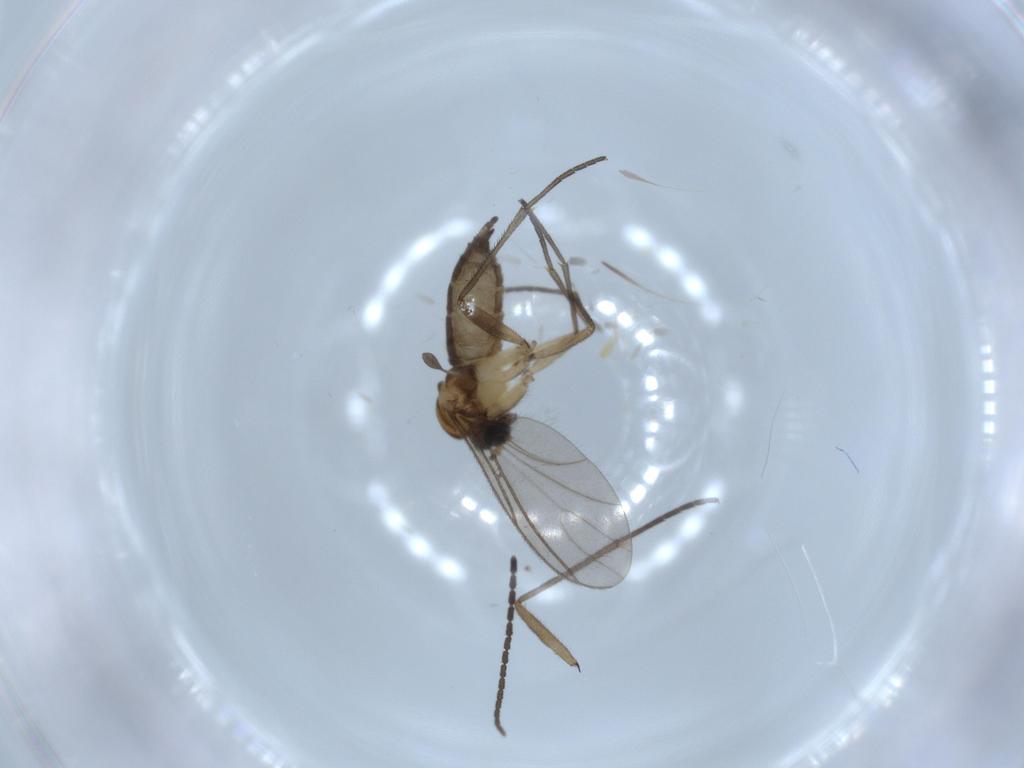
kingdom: Animalia
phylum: Arthropoda
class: Insecta
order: Diptera
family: Sciaridae
